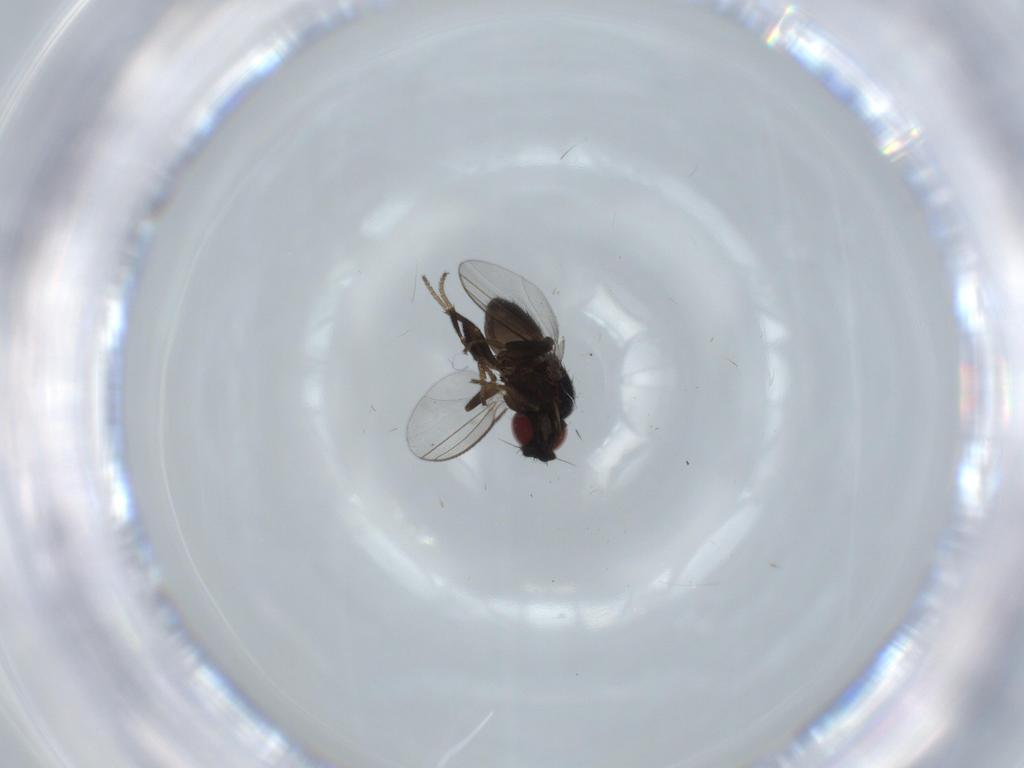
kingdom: Animalia
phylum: Arthropoda
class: Insecta
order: Diptera
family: Milichiidae
